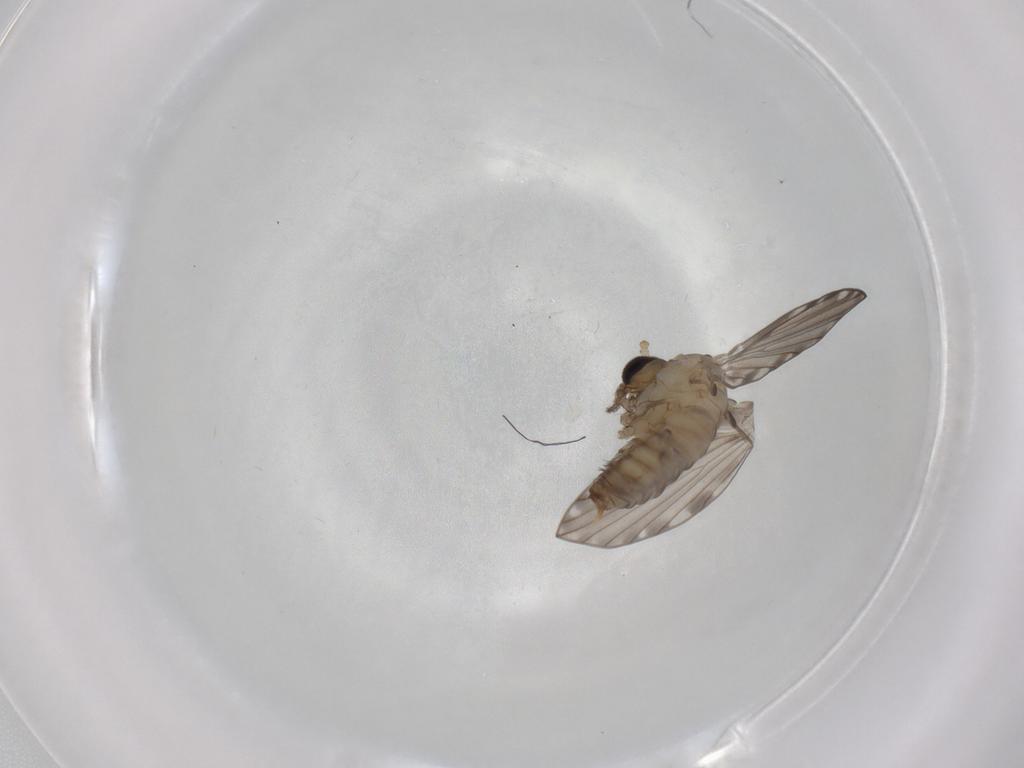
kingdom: Animalia
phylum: Arthropoda
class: Insecta
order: Diptera
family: Psychodidae
